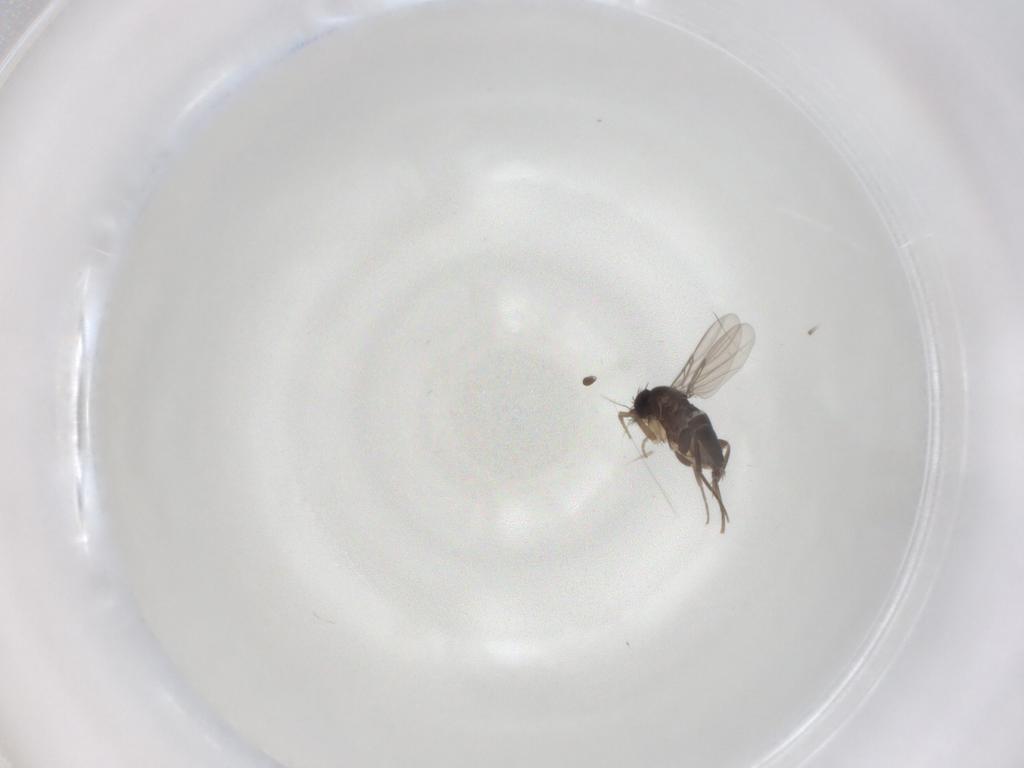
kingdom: Animalia
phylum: Arthropoda
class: Insecta
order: Diptera
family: Phoridae
